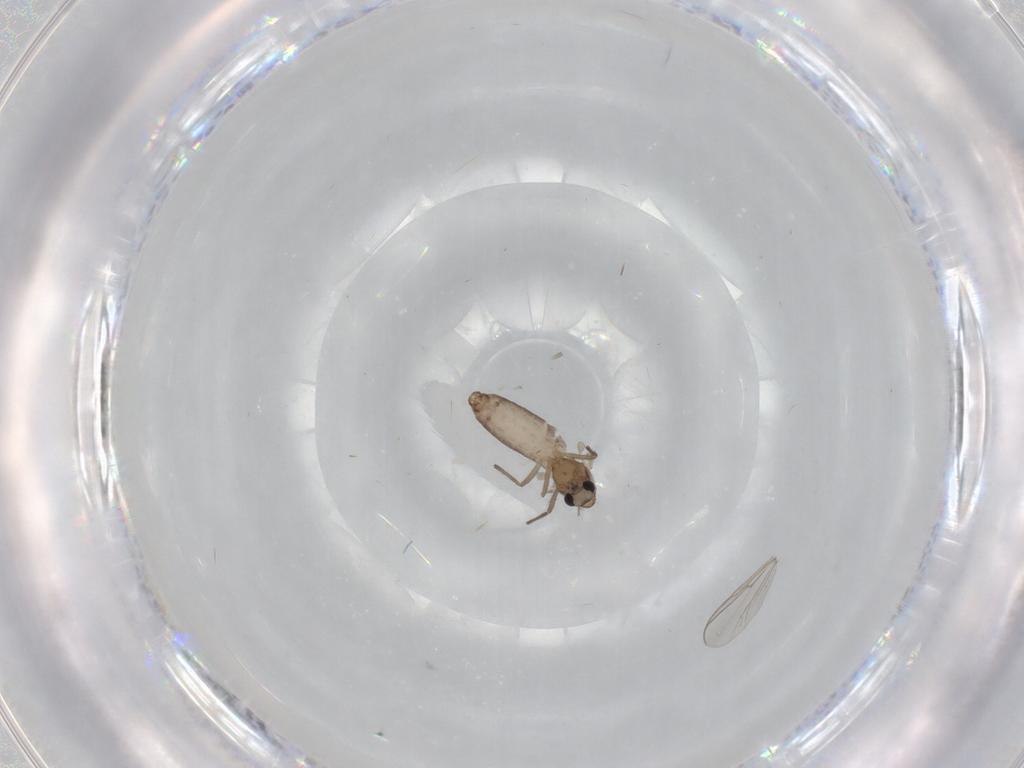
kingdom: Animalia
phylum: Arthropoda
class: Insecta
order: Diptera
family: Chironomidae
